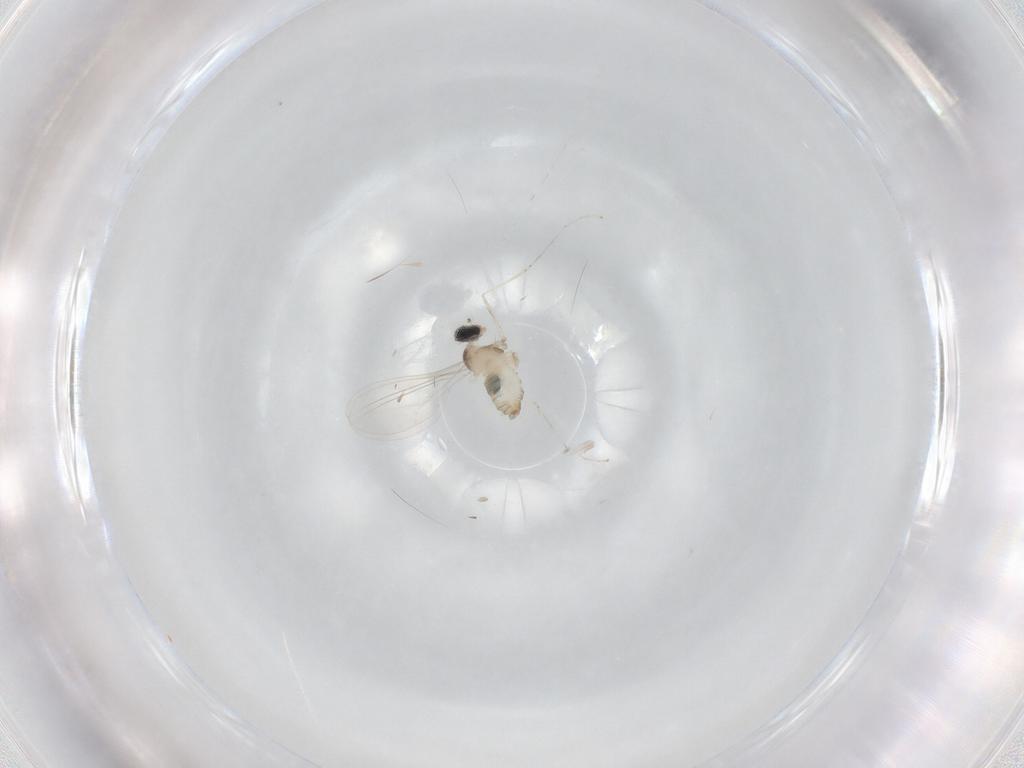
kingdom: Animalia
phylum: Arthropoda
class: Insecta
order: Diptera
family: Cecidomyiidae
